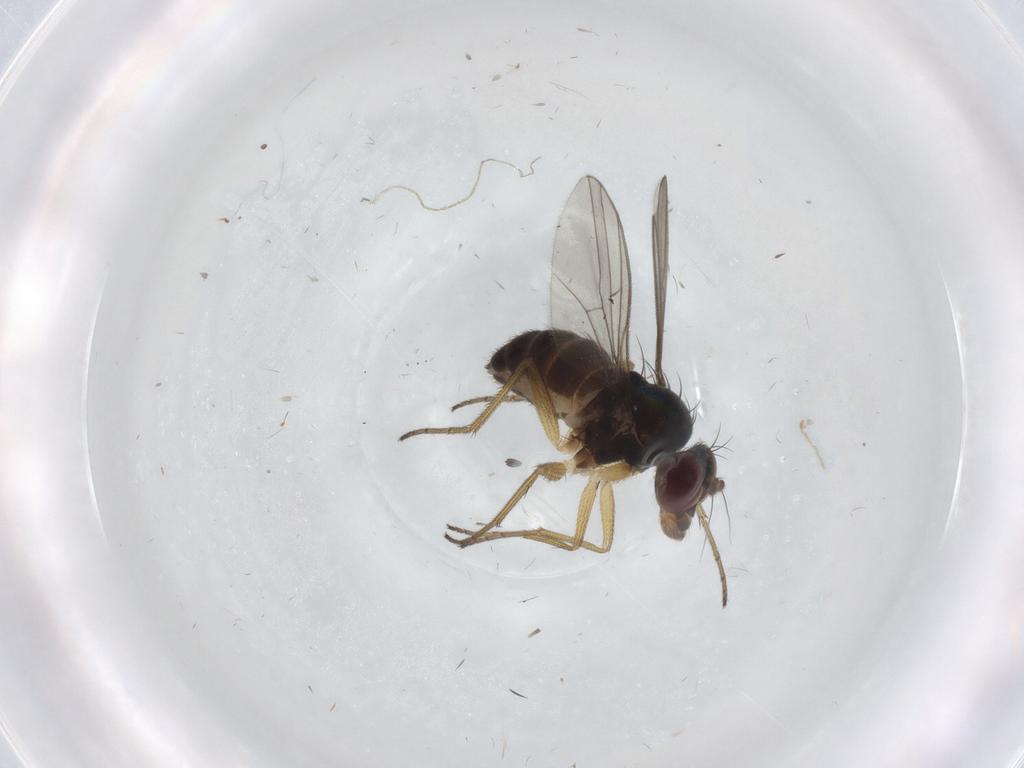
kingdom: Animalia
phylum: Arthropoda
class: Insecta
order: Diptera
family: Dolichopodidae
